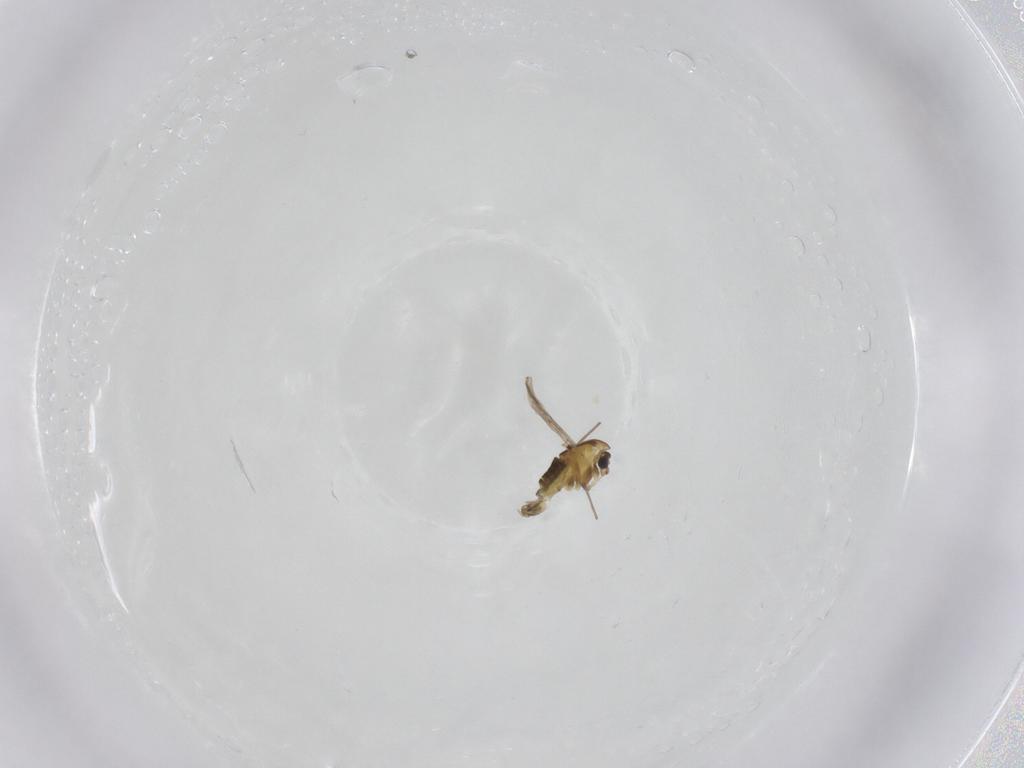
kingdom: Animalia
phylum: Arthropoda
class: Insecta
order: Diptera
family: Chironomidae
